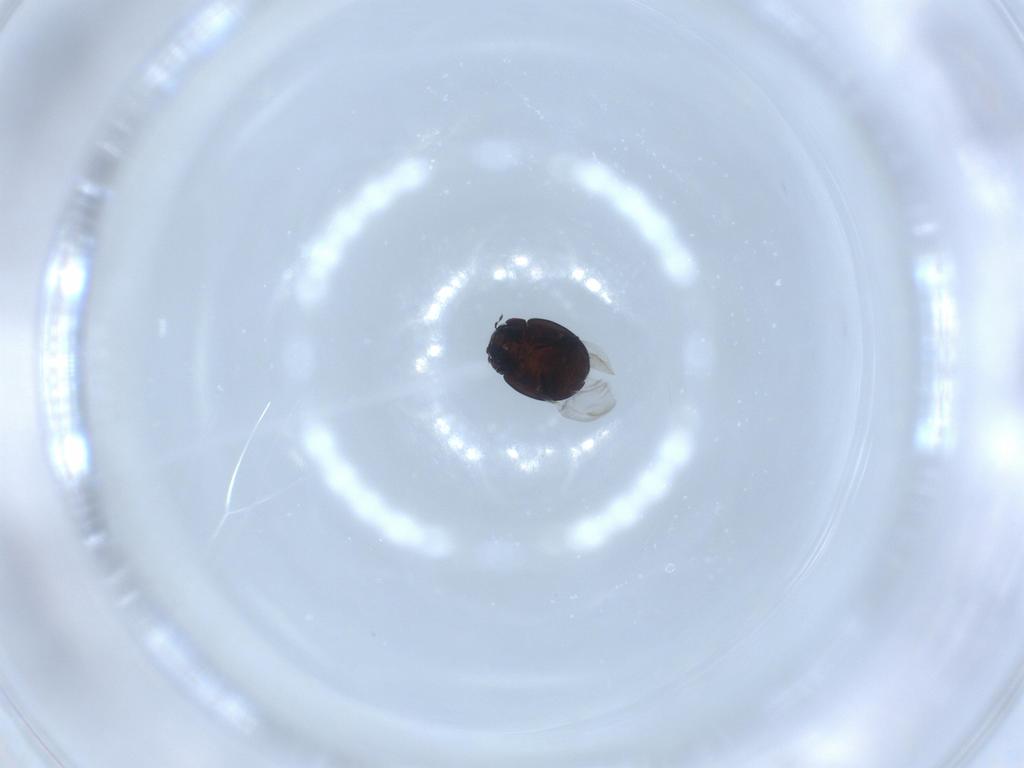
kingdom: Animalia
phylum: Arthropoda
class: Insecta
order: Coleoptera
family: Coccinellidae
